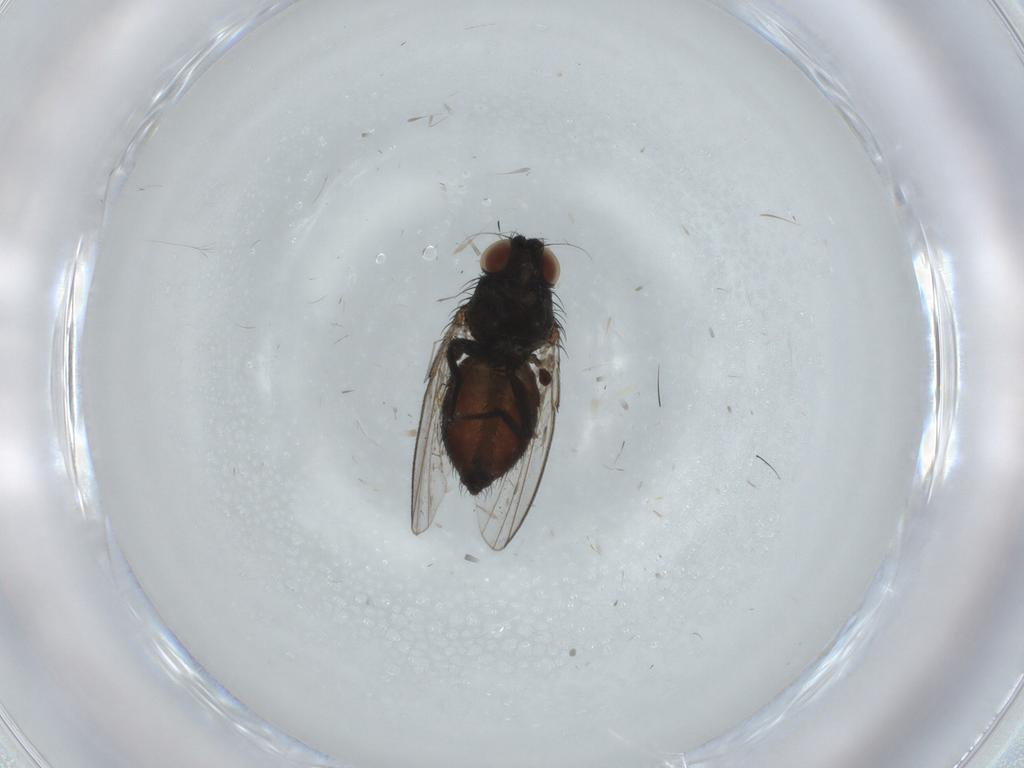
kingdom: Animalia
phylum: Arthropoda
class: Insecta
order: Diptera
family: Milichiidae
